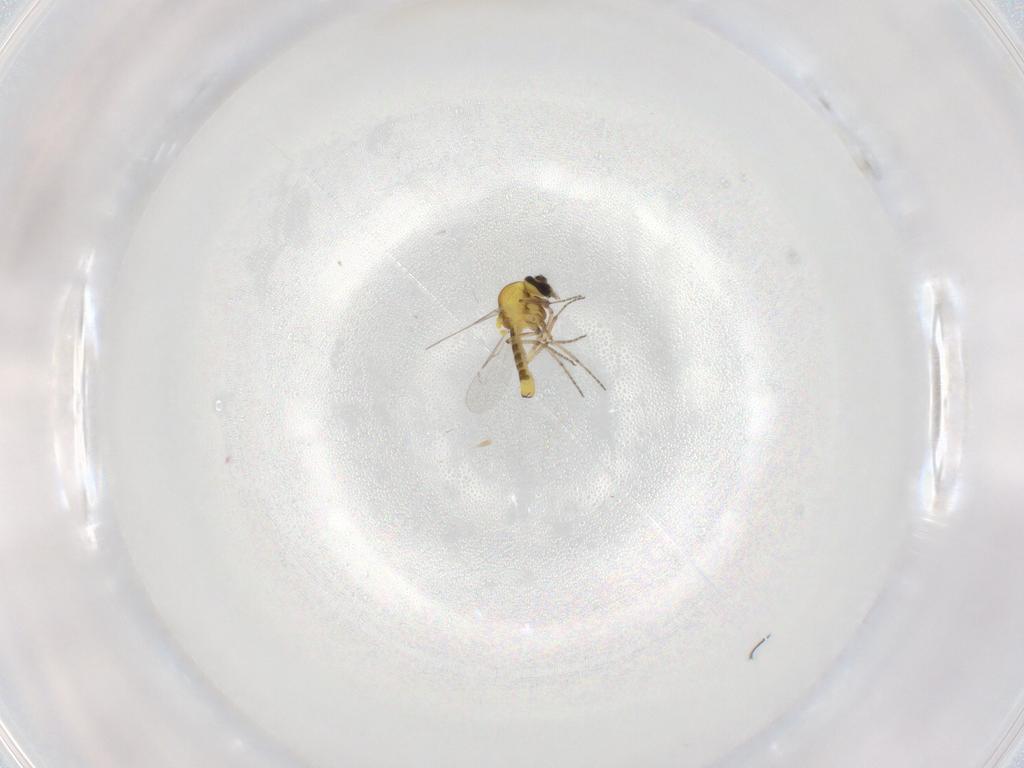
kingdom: Animalia
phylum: Arthropoda
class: Insecta
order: Diptera
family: Ceratopogonidae
